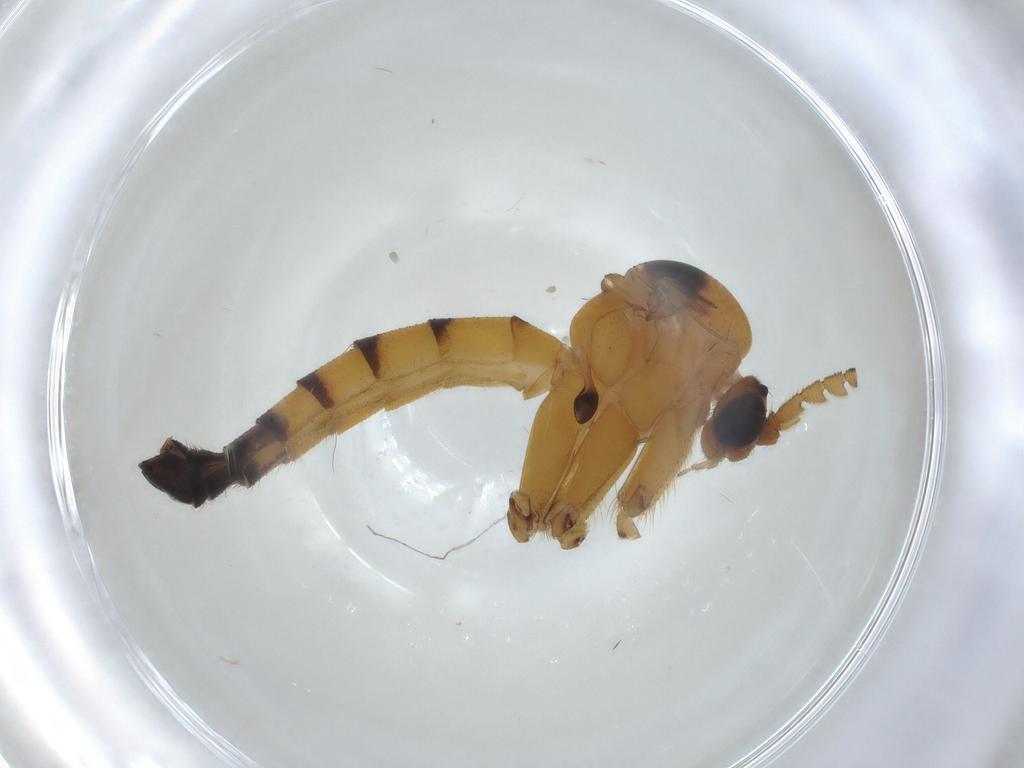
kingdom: Animalia
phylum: Arthropoda
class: Insecta
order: Diptera
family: Mycetophilidae
